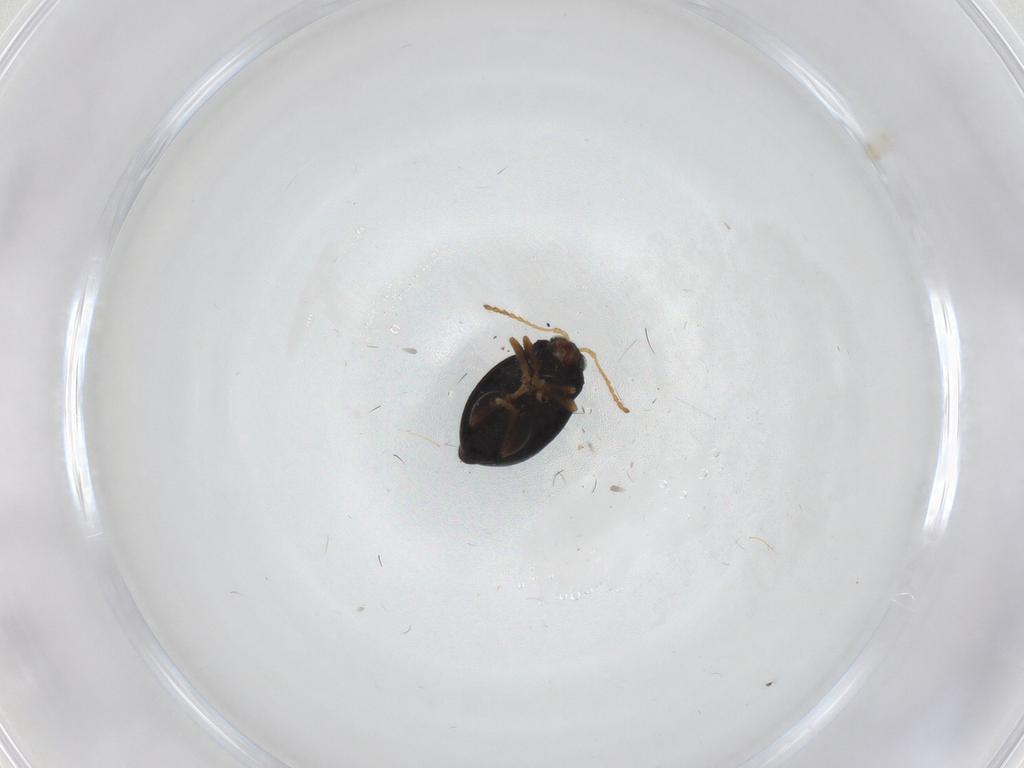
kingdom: Animalia
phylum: Arthropoda
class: Insecta
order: Coleoptera
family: Chrysomelidae
